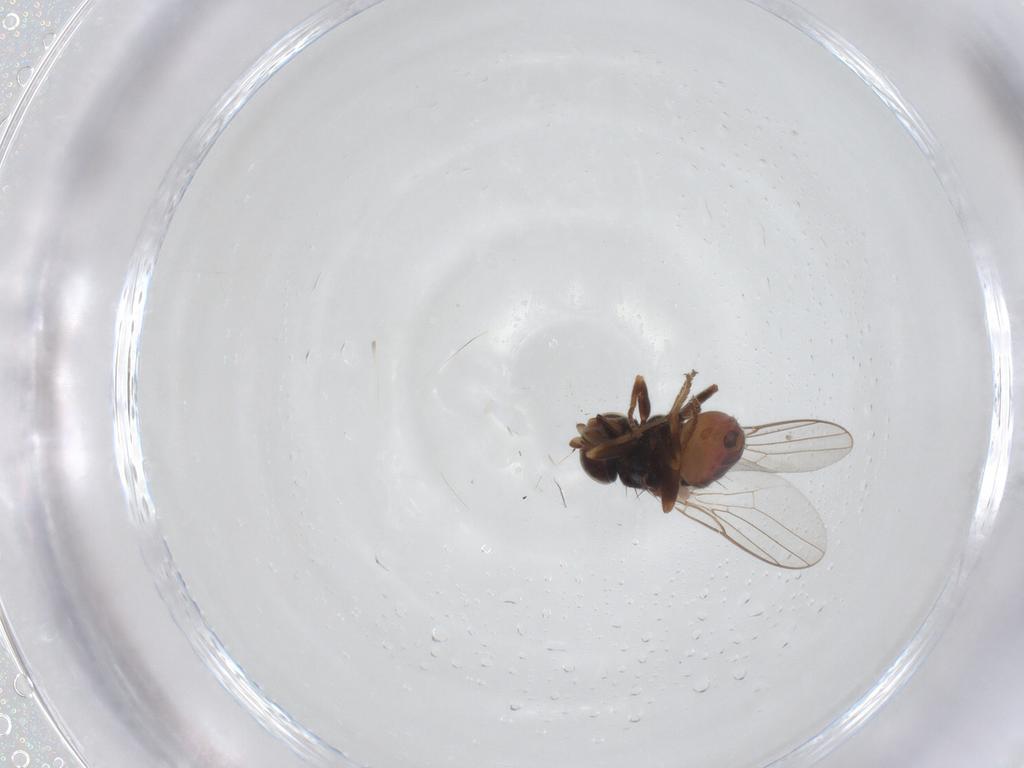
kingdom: Animalia
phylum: Arthropoda
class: Insecta
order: Diptera
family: Chloropidae
